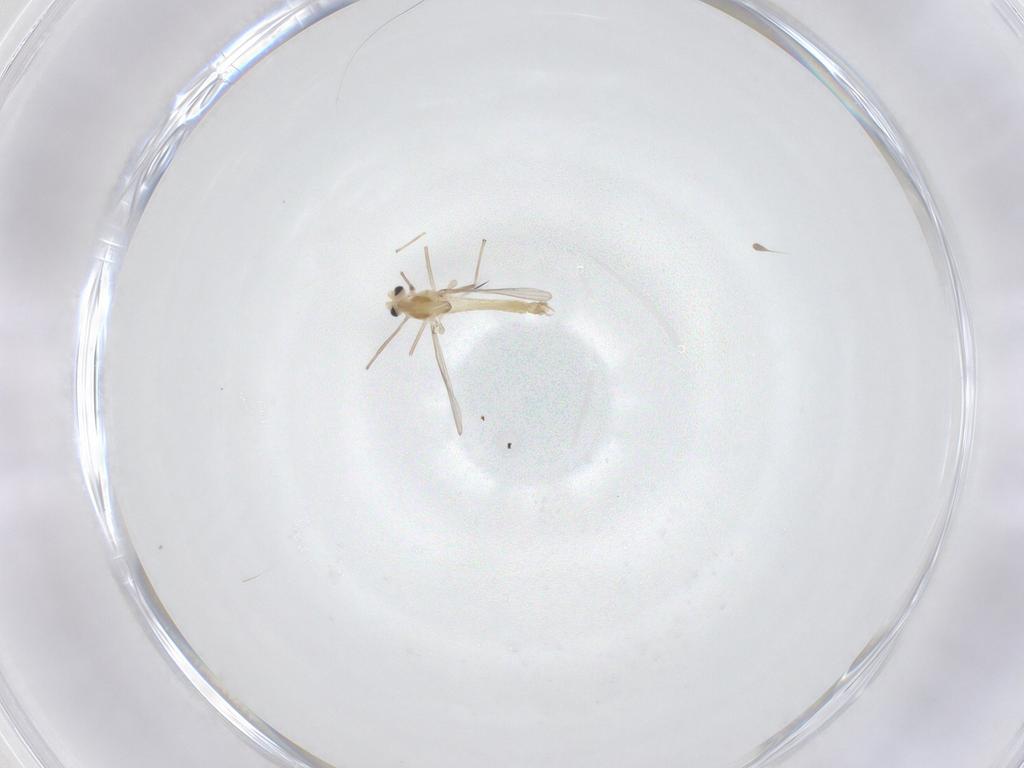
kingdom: Animalia
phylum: Arthropoda
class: Insecta
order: Diptera
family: Chironomidae
